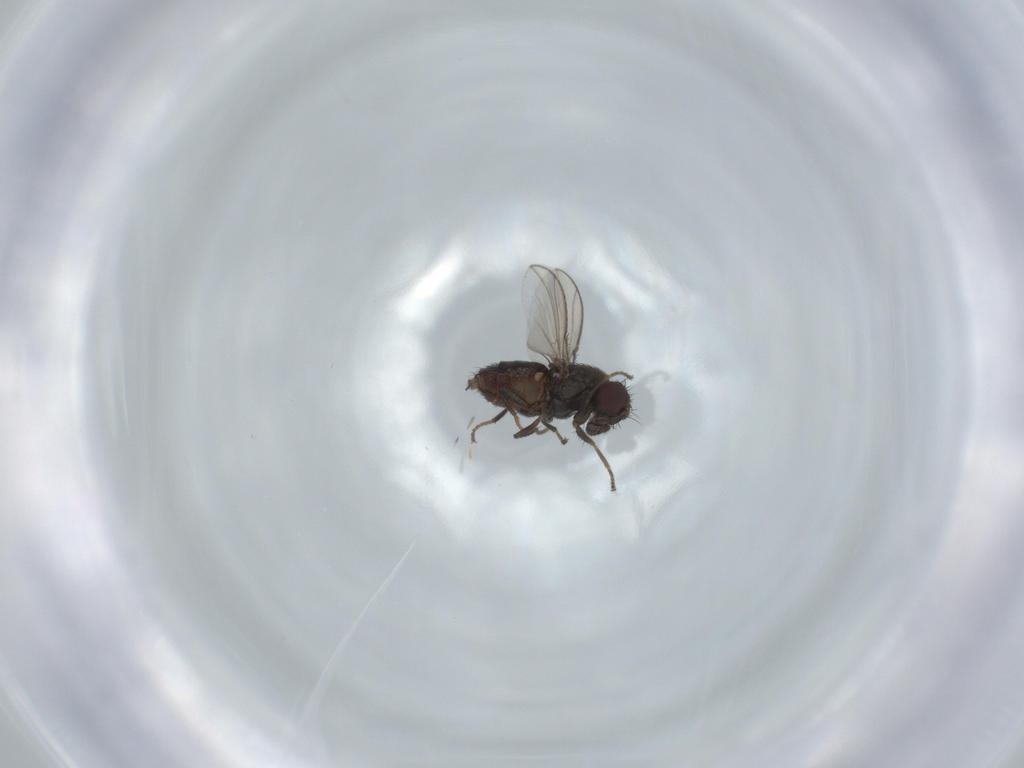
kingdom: Animalia
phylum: Arthropoda
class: Insecta
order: Diptera
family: Carnidae
